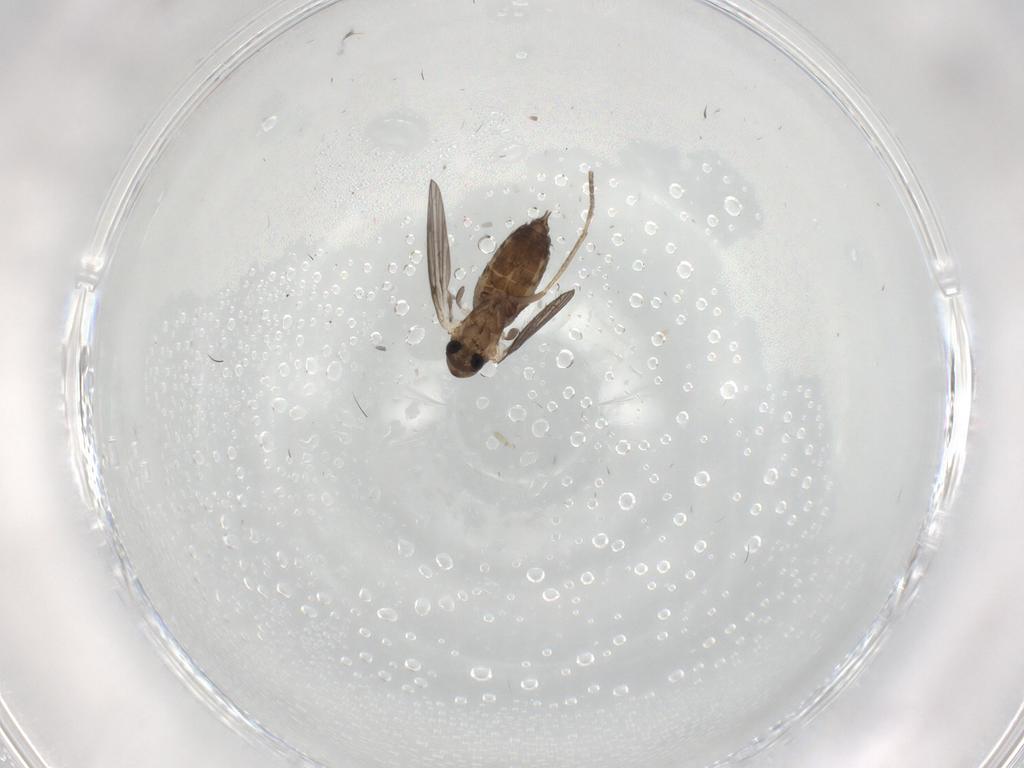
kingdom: Animalia
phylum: Arthropoda
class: Insecta
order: Diptera
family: Psychodidae
